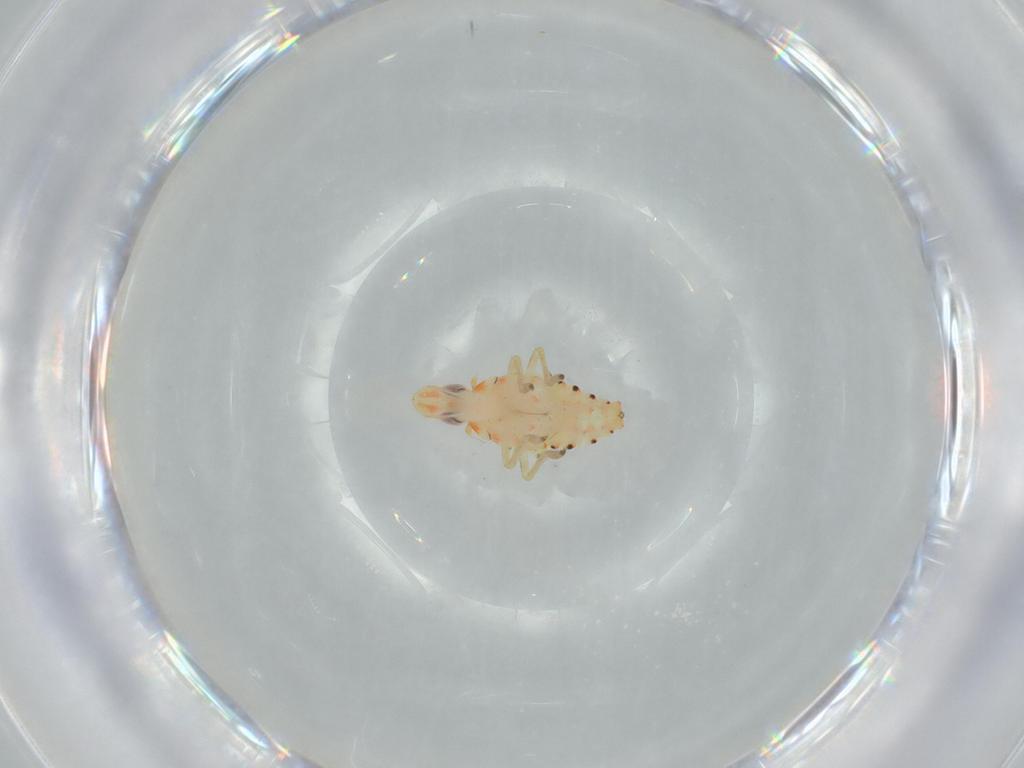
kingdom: Animalia
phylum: Arthropoda
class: Insecta
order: Hemiptera
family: Tropiduchidae
